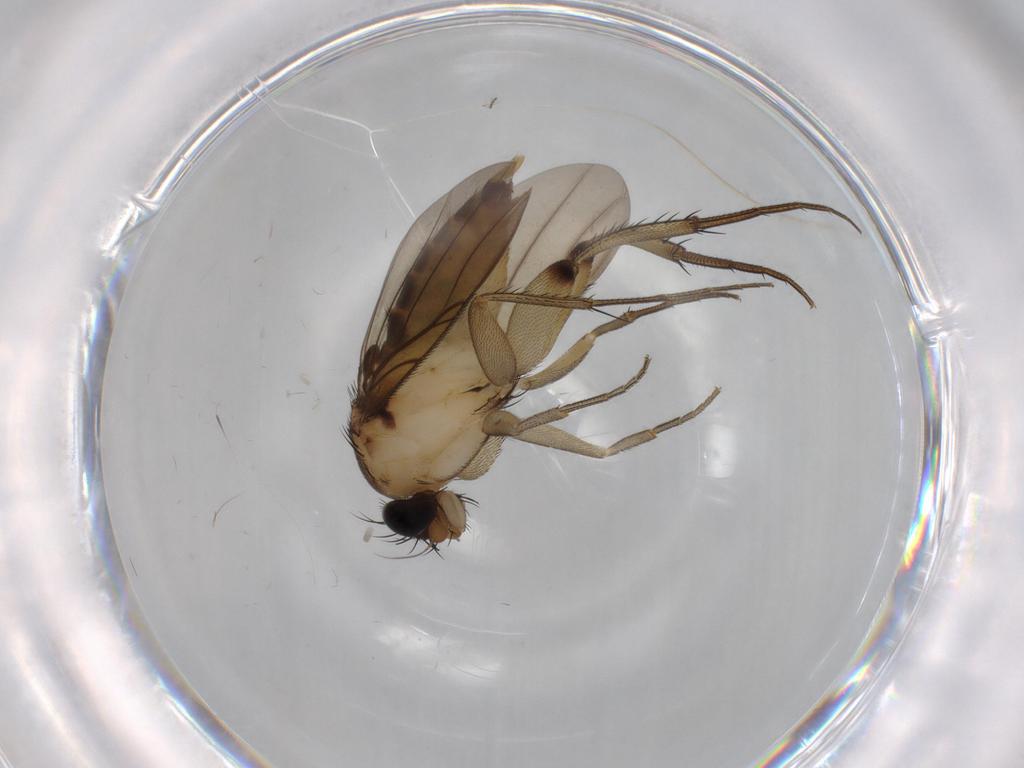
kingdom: Animalia
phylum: Arthropoda
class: Insecta
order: Diptera
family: Sciaridae
